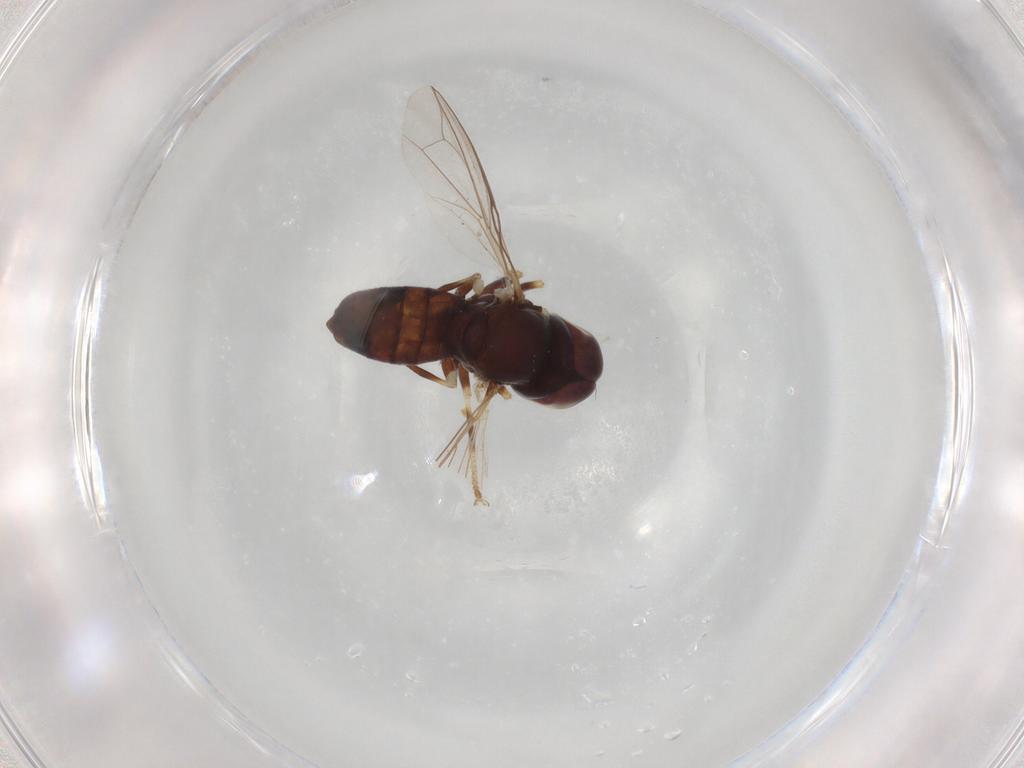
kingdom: Animalia
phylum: Arthropoda
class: Insecta
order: Diptera
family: Pipunculidae
